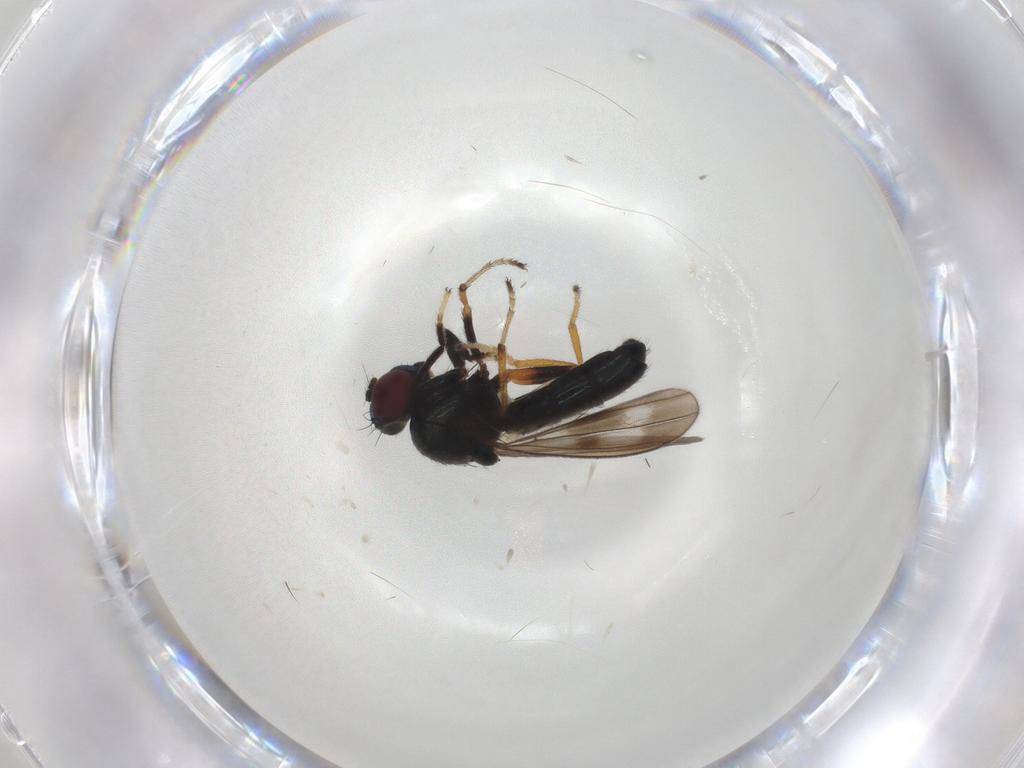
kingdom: Animalia
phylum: Arthropoda
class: Insecta
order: Diptera
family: Ephydridae
